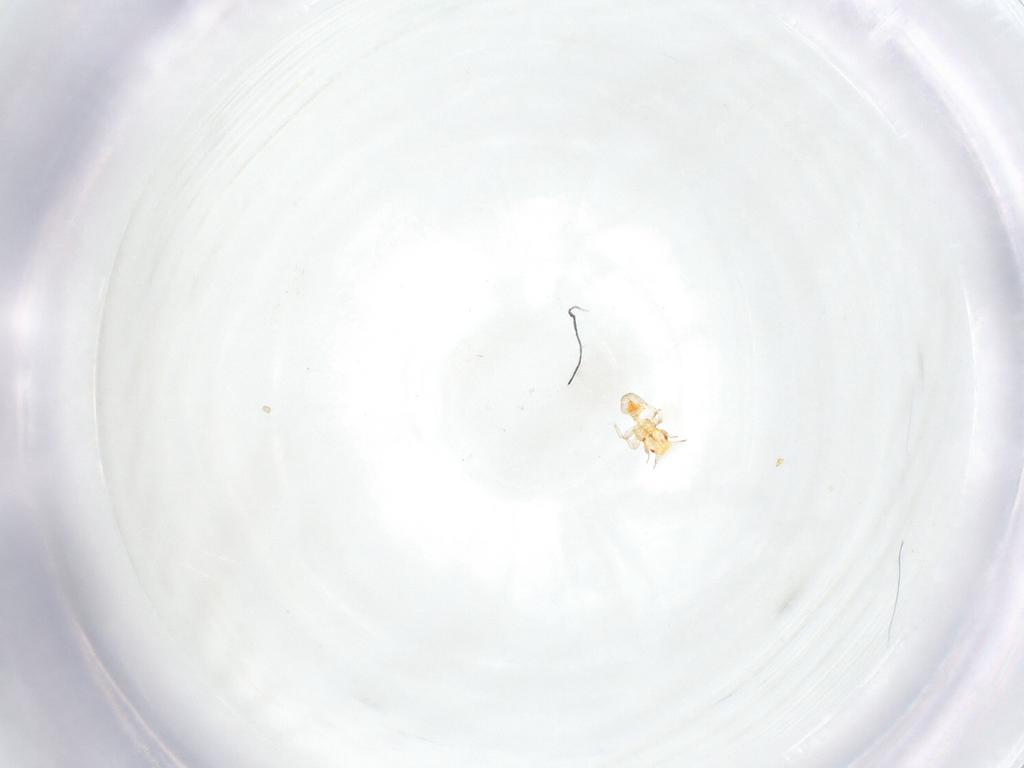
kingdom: Animalia
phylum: Arthropoda
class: Insecta
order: Hemiptera
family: Aphalaridae
